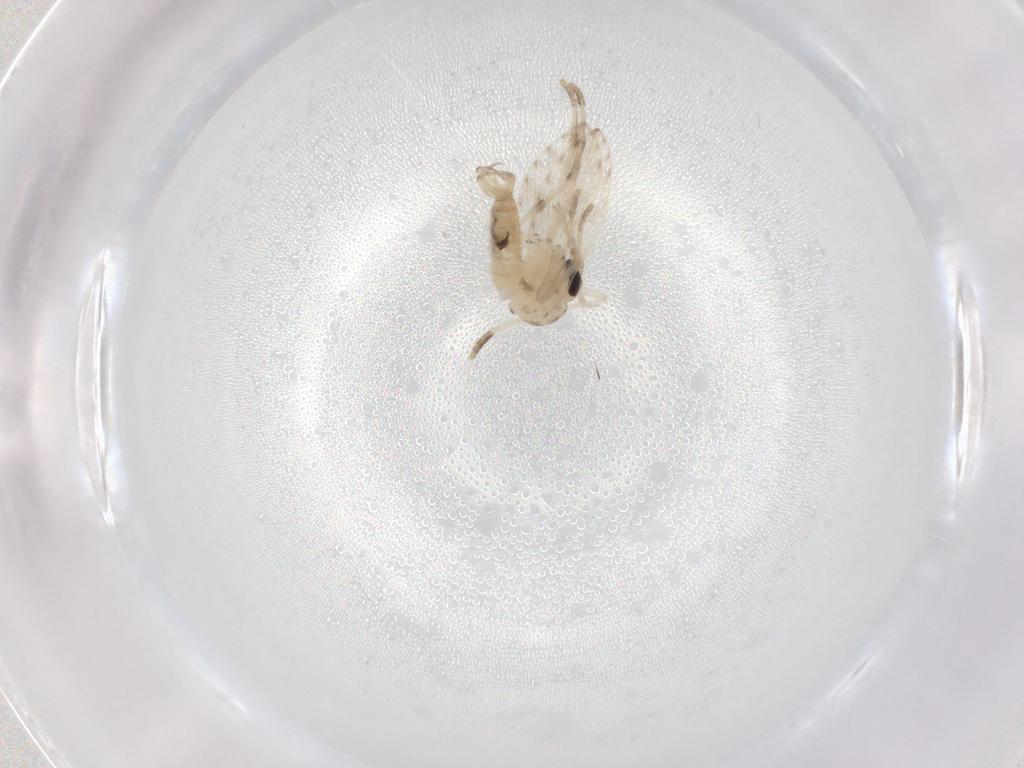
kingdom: Animalia
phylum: Arthropoda
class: Insecta
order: Diptera
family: Psychodidae
